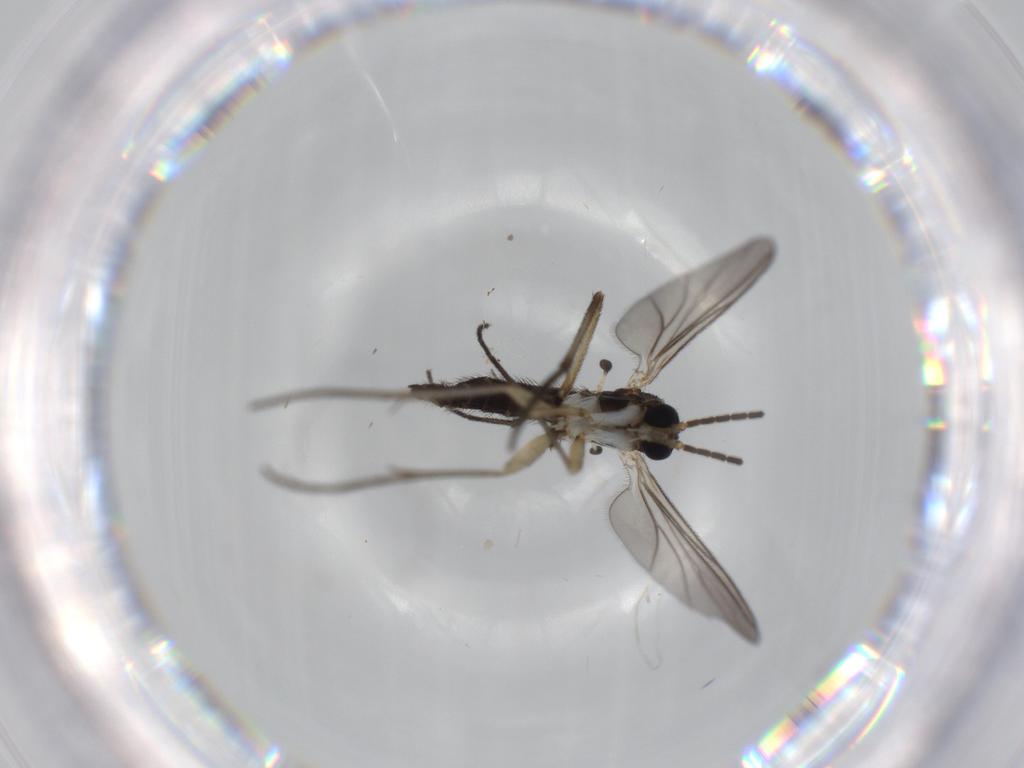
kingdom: Animalia
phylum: Arthropoda
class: Insecta
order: Diptera
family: Sciaridae
